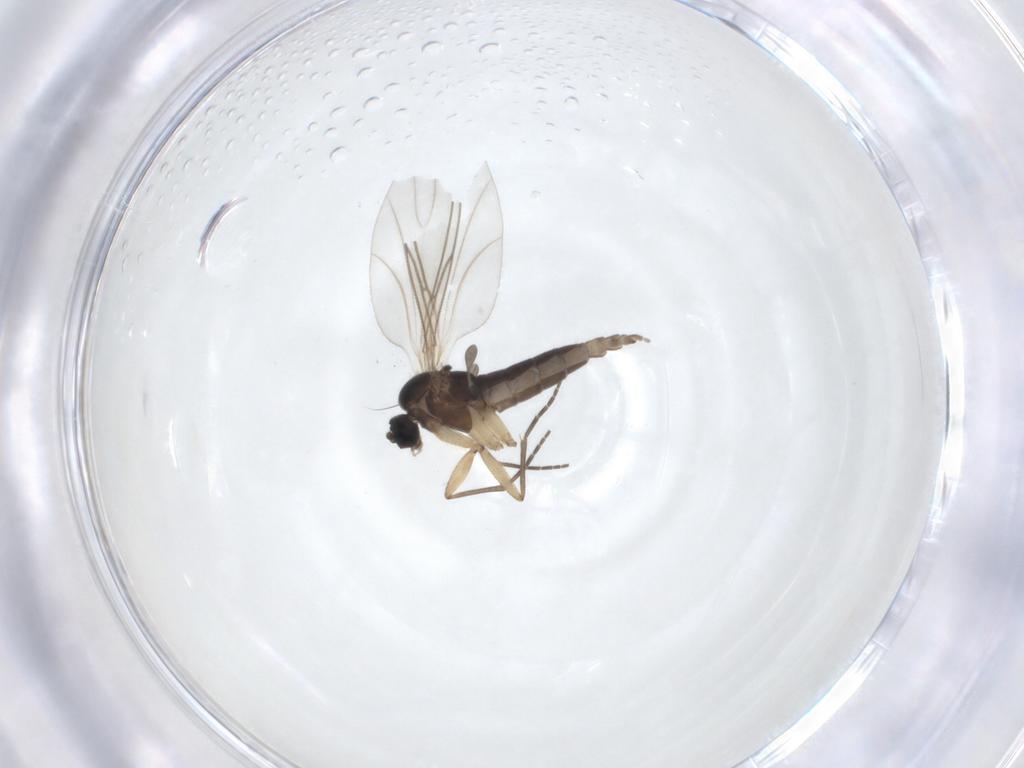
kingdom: Animalia
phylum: Arthropoda
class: Insecta
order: Diptera
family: Sciaridae
